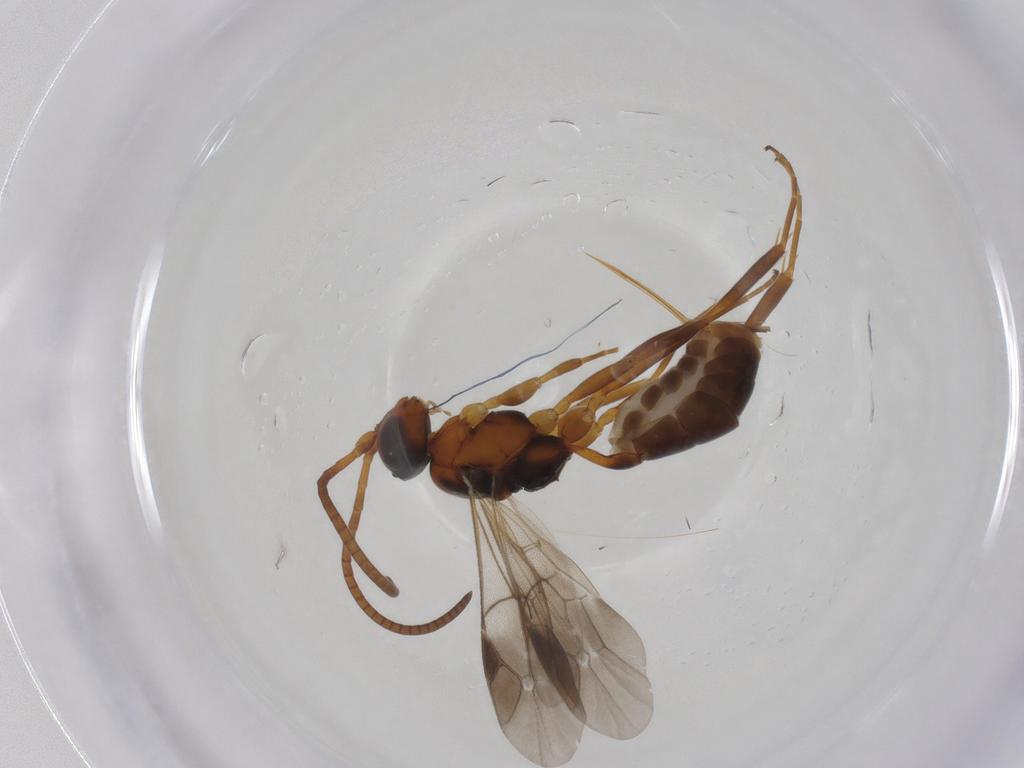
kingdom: Animalia
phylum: Arthropoda
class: Insecta
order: Hymenoptera
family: Ichneumonidae
